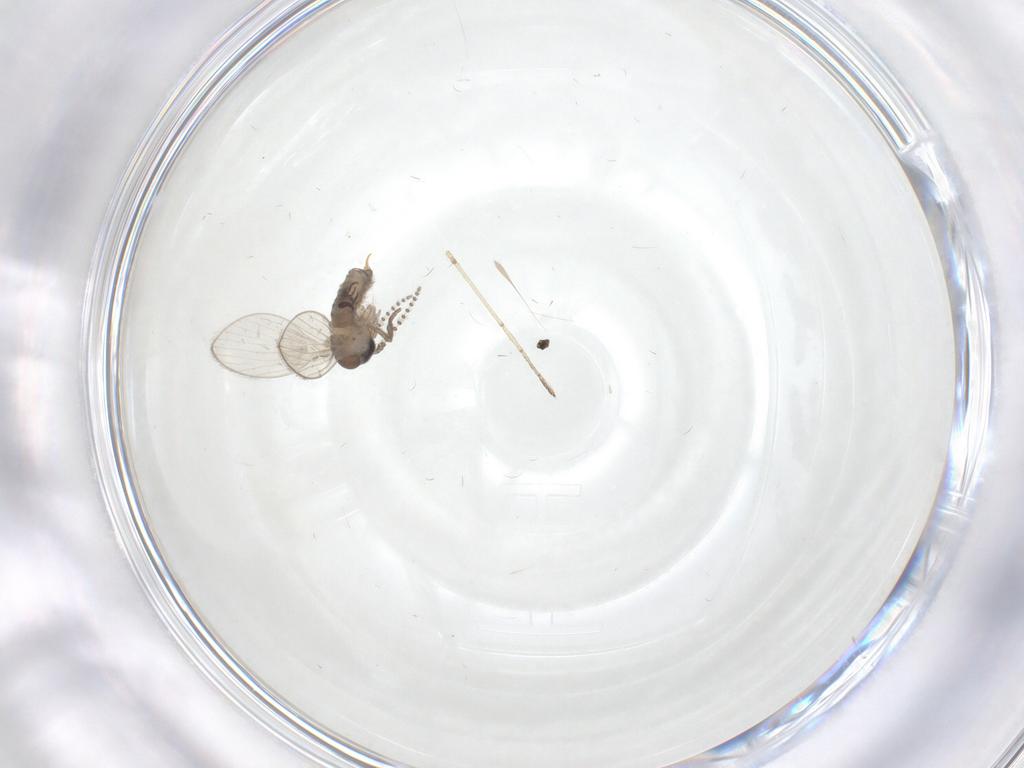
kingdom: Animalia
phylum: Arthropoda
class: Insecta
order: Diptera
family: Psychodidae
